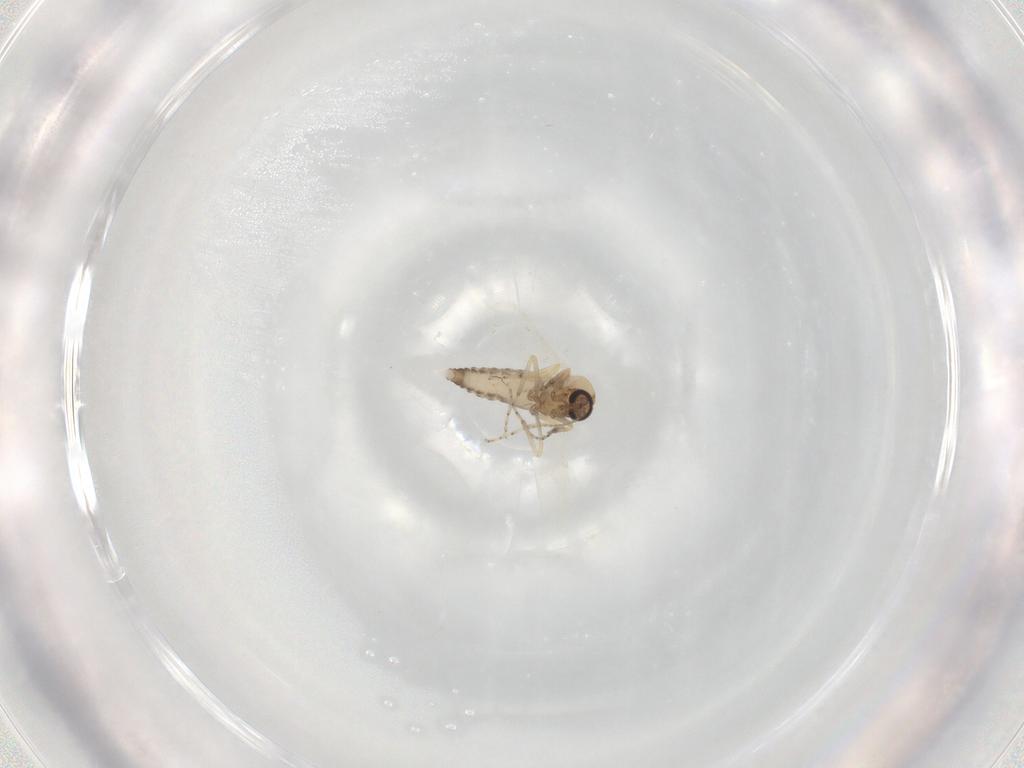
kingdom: Animalia
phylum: Arthropoda
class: Insecta
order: Diptera
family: Ceratopogonidae
